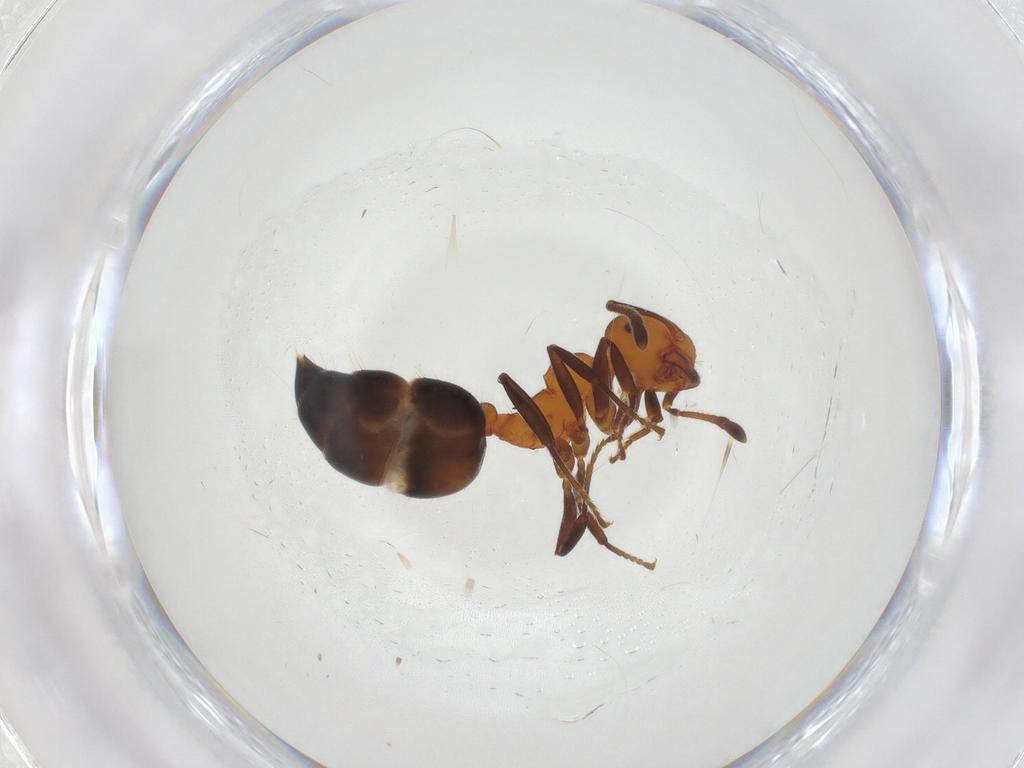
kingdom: Animalia
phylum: Arthropoda
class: Insecta
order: Hymenoptera
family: Formicidae
